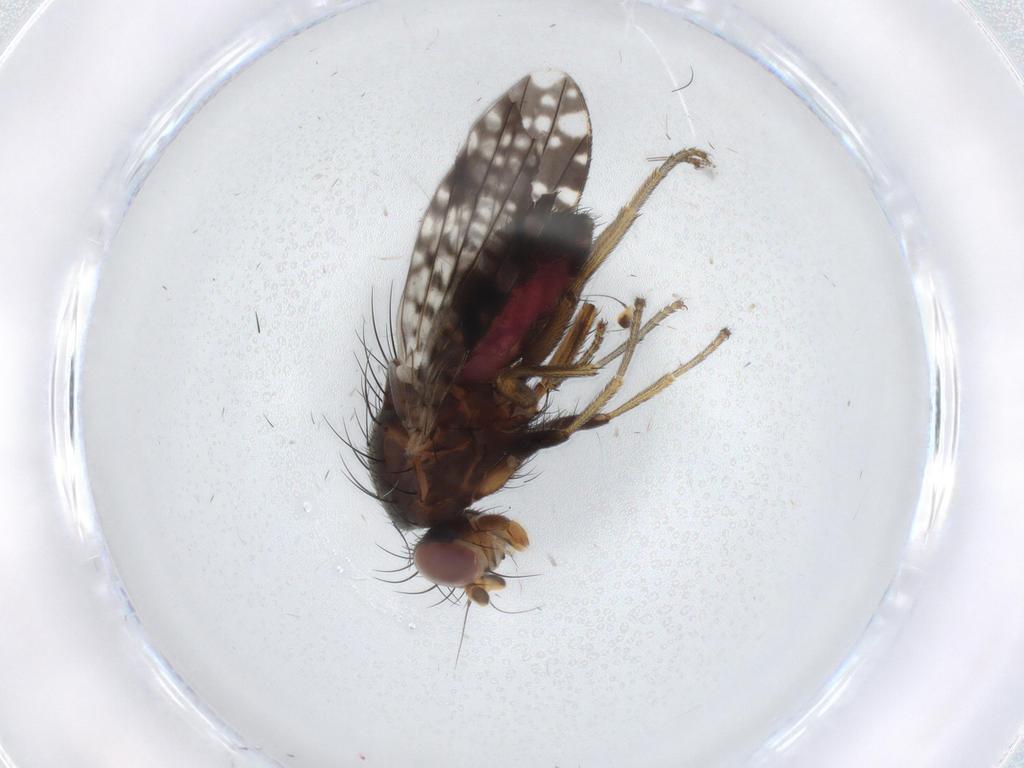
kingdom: Animalia
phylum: Arthropoda
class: Insecta
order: Diptera
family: Tephritidae
